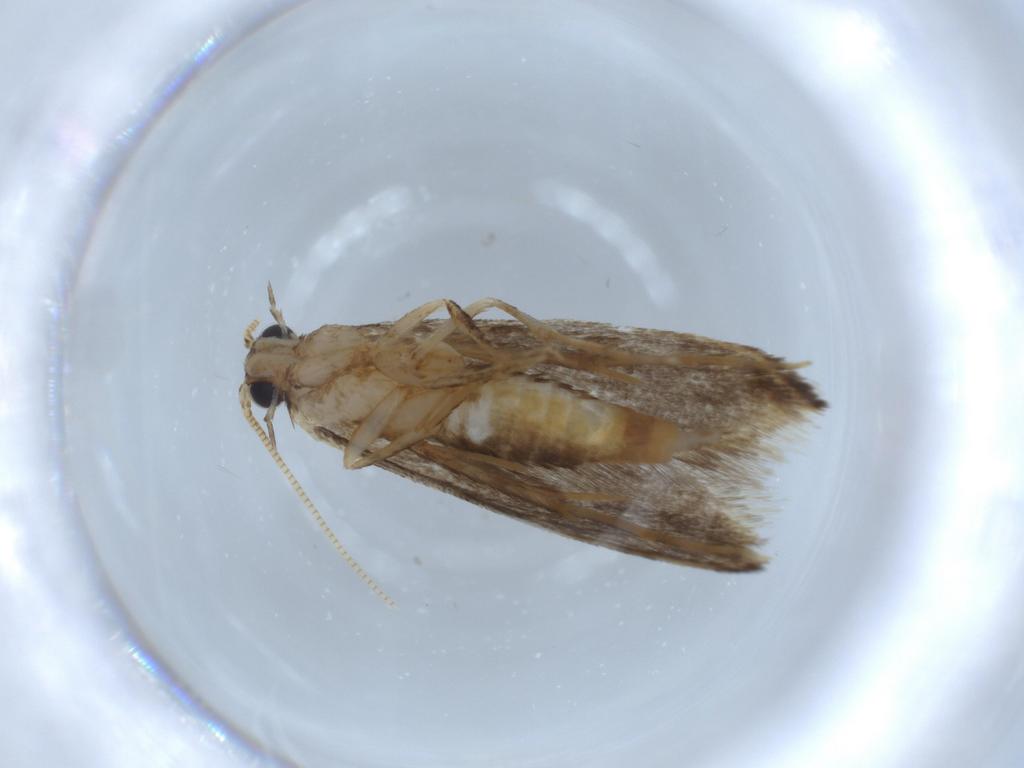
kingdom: Animalia
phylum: Arthropoda
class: Insecta
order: Lepidoptera
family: Tineidae
